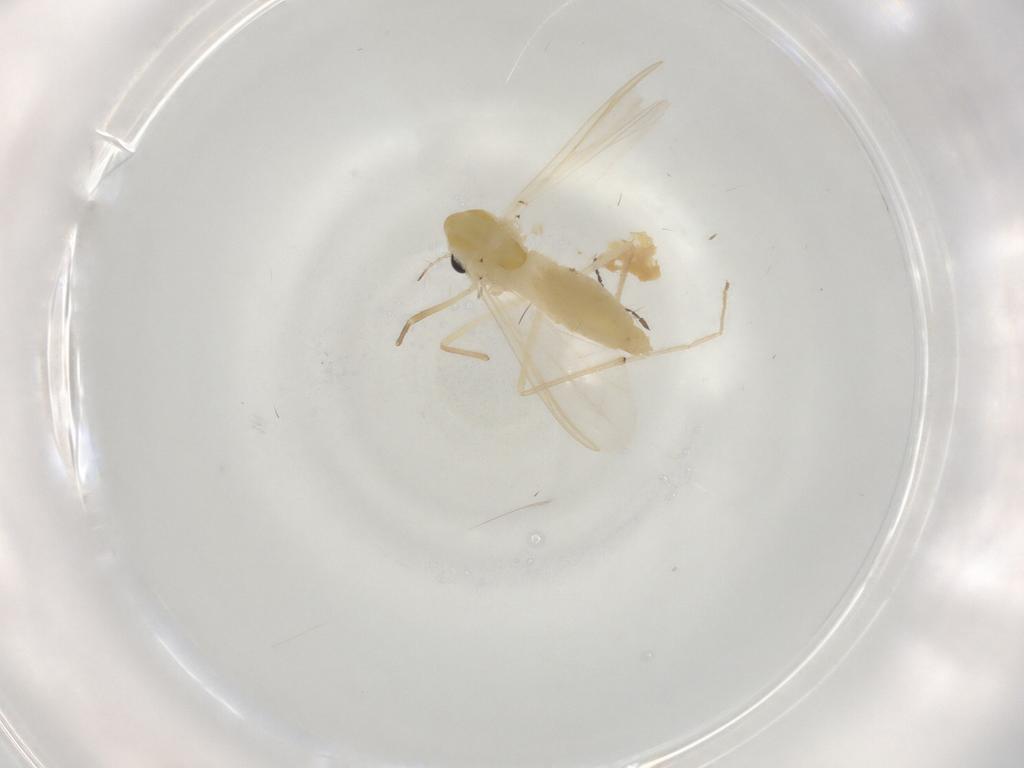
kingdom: Animalia
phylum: Arthropoda
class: Insecta
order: Diptera
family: Chironomidae
